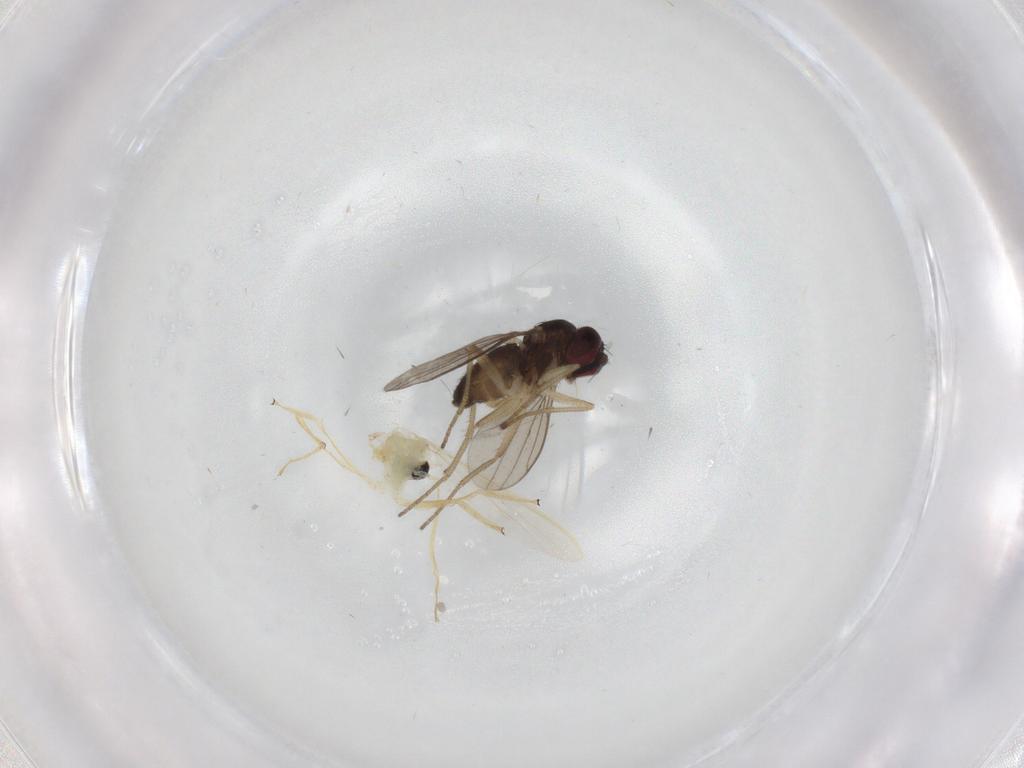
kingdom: Animalia
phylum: Arthropoda
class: Insecta
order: Diptera
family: Dolichopodidae
